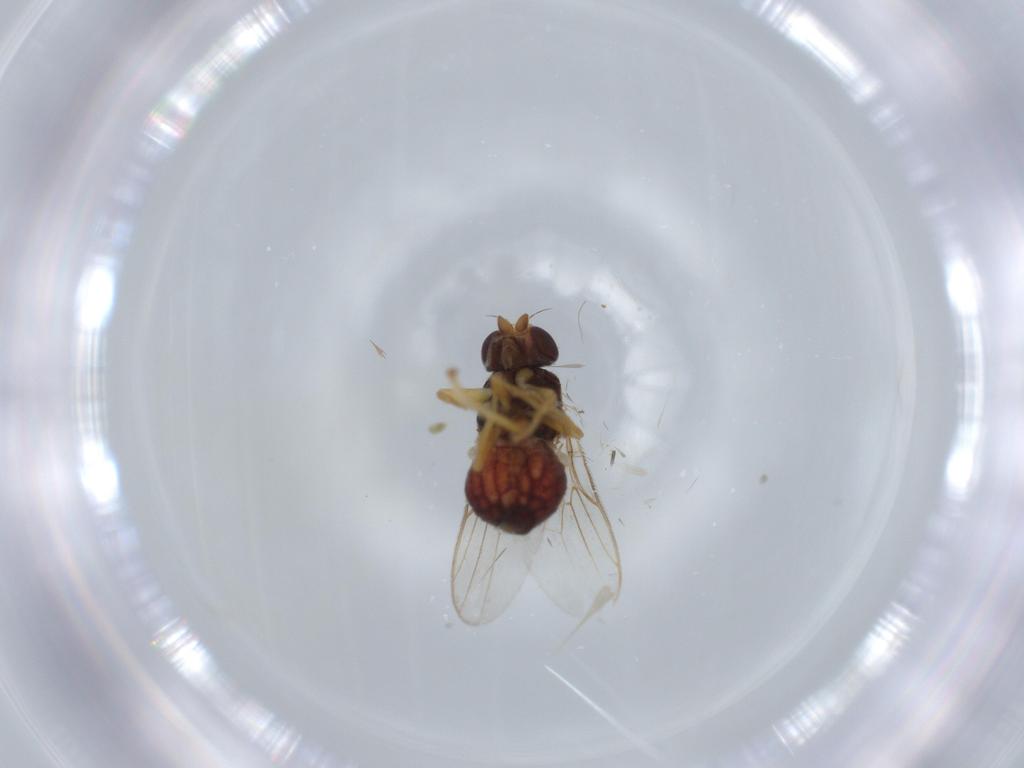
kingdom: Animalia
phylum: Arthropoda
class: Insecta
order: Diptera
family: Chloropidae
